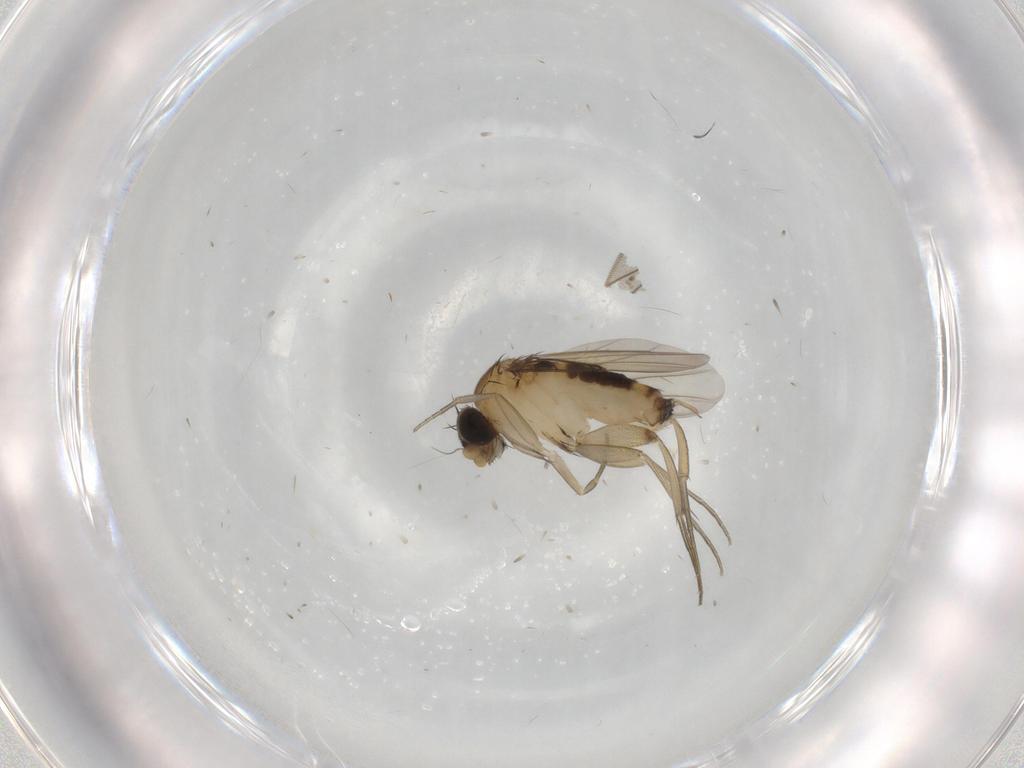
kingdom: Animalia
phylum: Arthropoda
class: Insecta
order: Diptera
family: Phoridae
